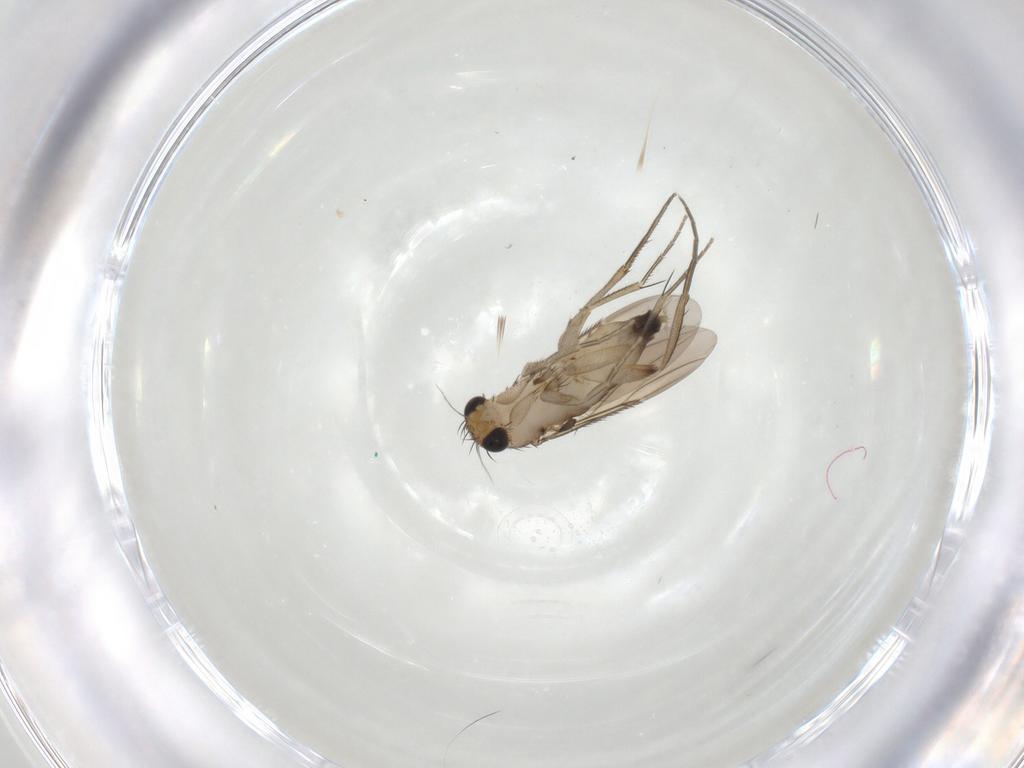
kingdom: Animalia
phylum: Arthropoda
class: Insecta
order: Diptera
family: Phoridae
